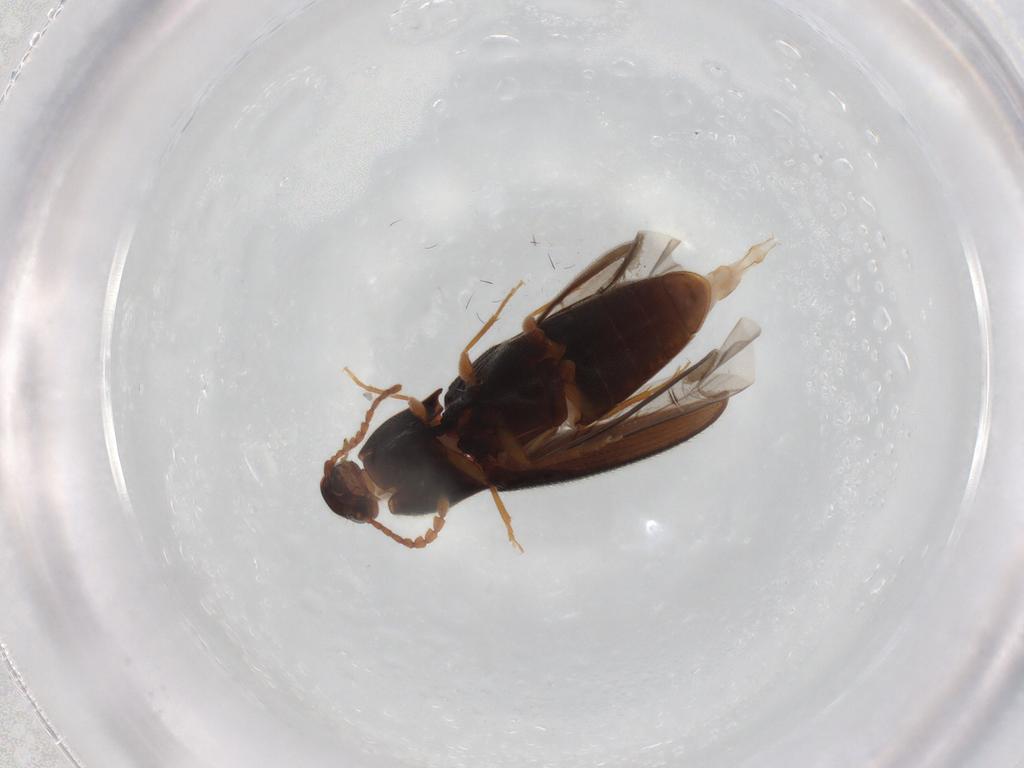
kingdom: Animalia
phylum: Arthropoda
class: Insecta
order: Coleoptera
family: Elateridae
